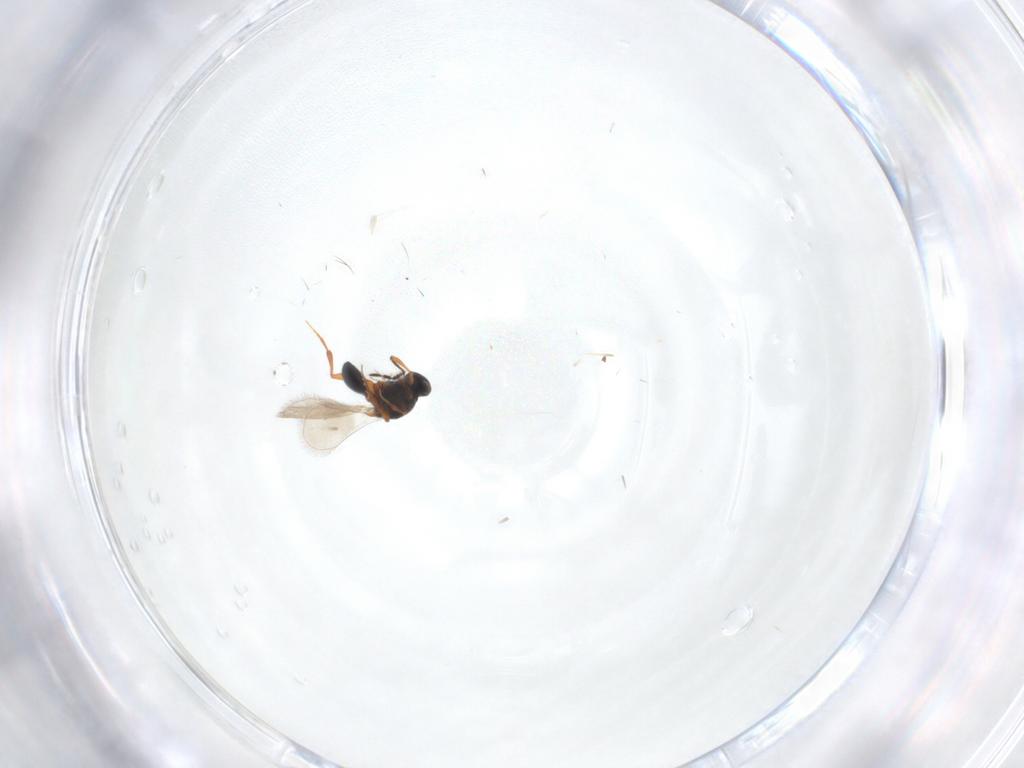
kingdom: Animalia
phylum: Arthropoda
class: Insecta
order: Hymenoptera
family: Platygastridae
